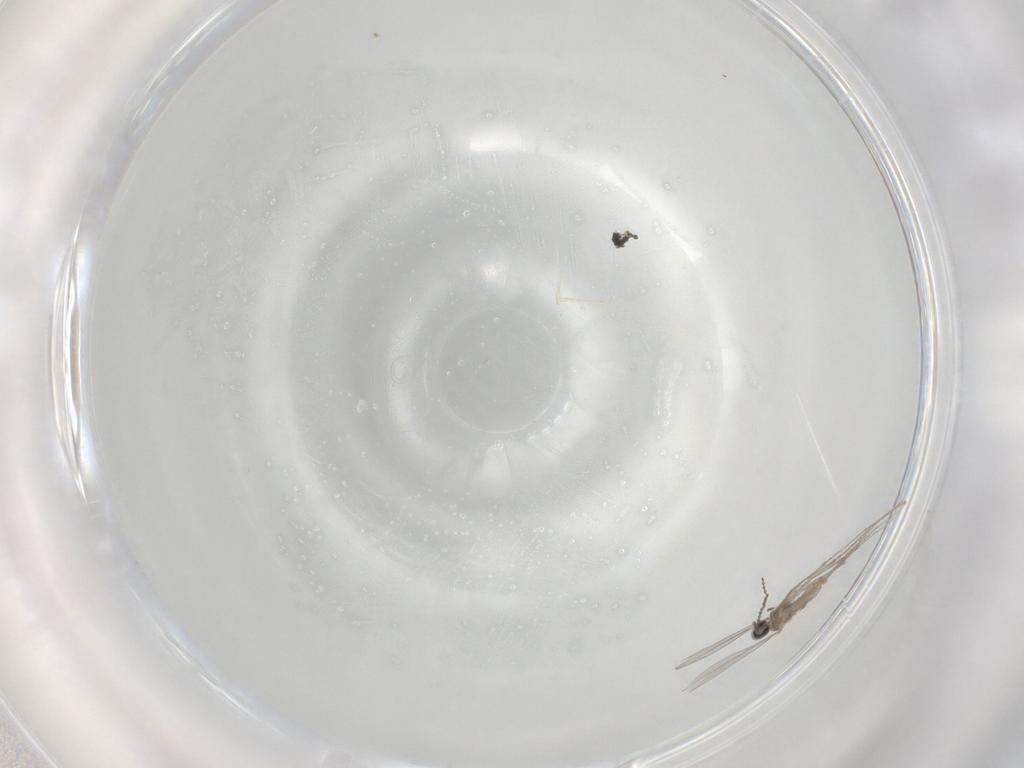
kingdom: Animalia
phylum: Arthropoda
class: Insecta
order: Diptera
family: Cecidomyiidae
